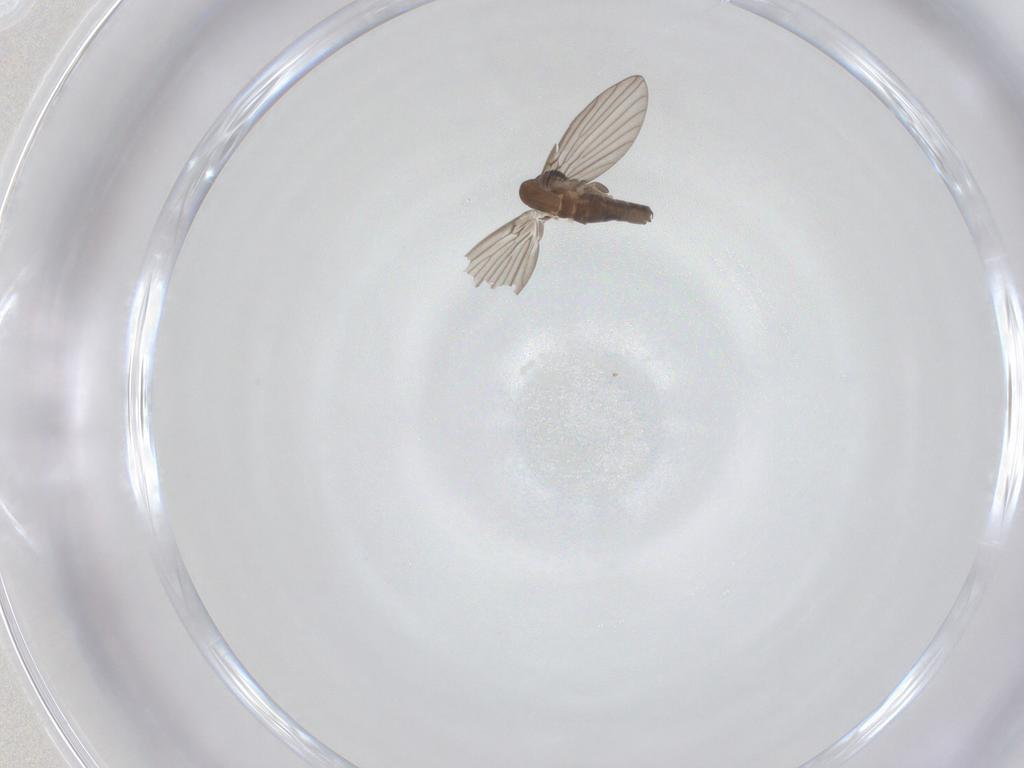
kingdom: Animalia
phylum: Arthropoda
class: Insecta
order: Diptera
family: Psychodidae
